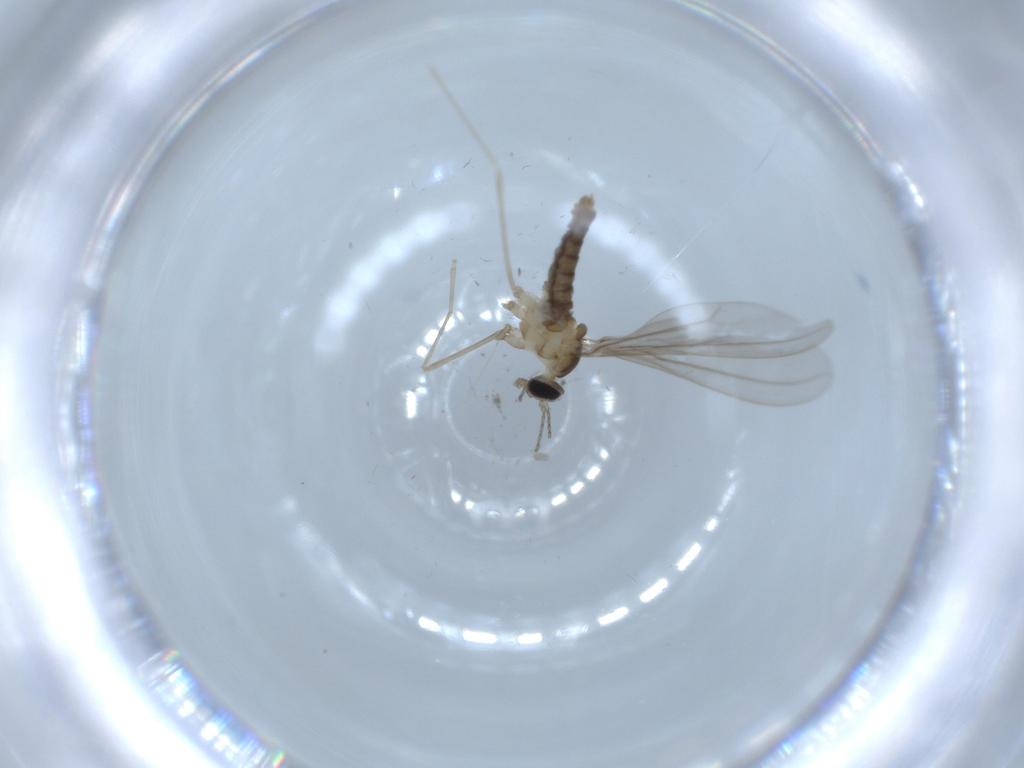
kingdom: Animalia
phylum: Arthropoda
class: Insecta
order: Diptera
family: Cecidomyiidae
